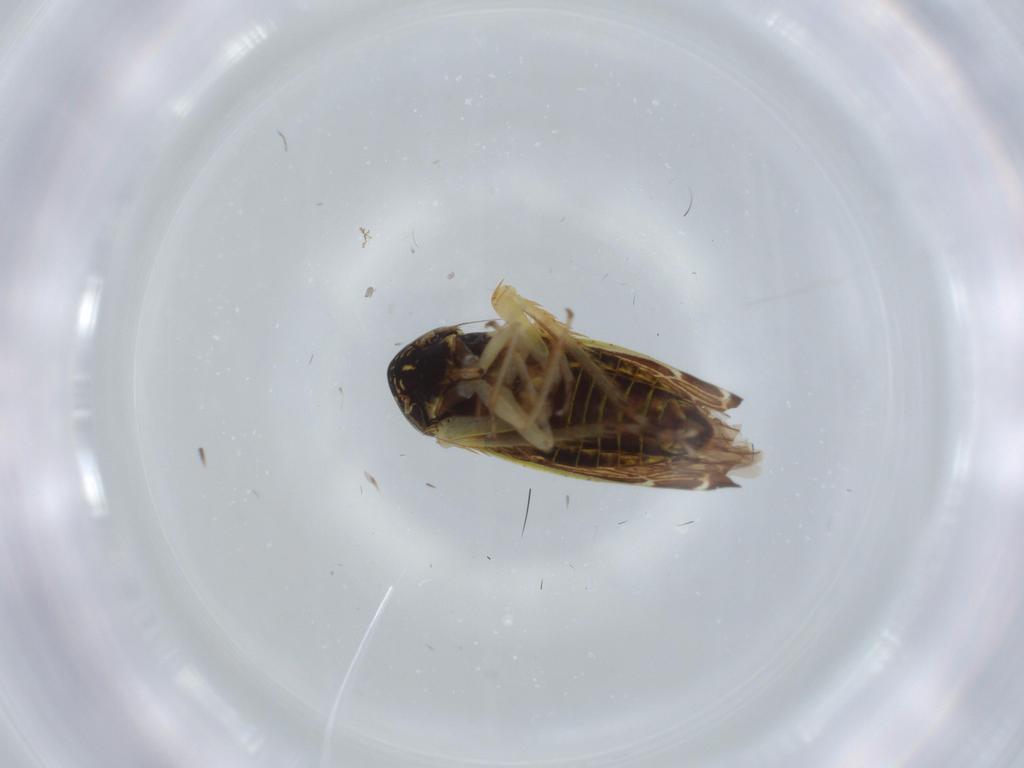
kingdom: Animalia
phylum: Arthropoda
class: Insecta
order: Hemiptera
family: Cicadellidae
